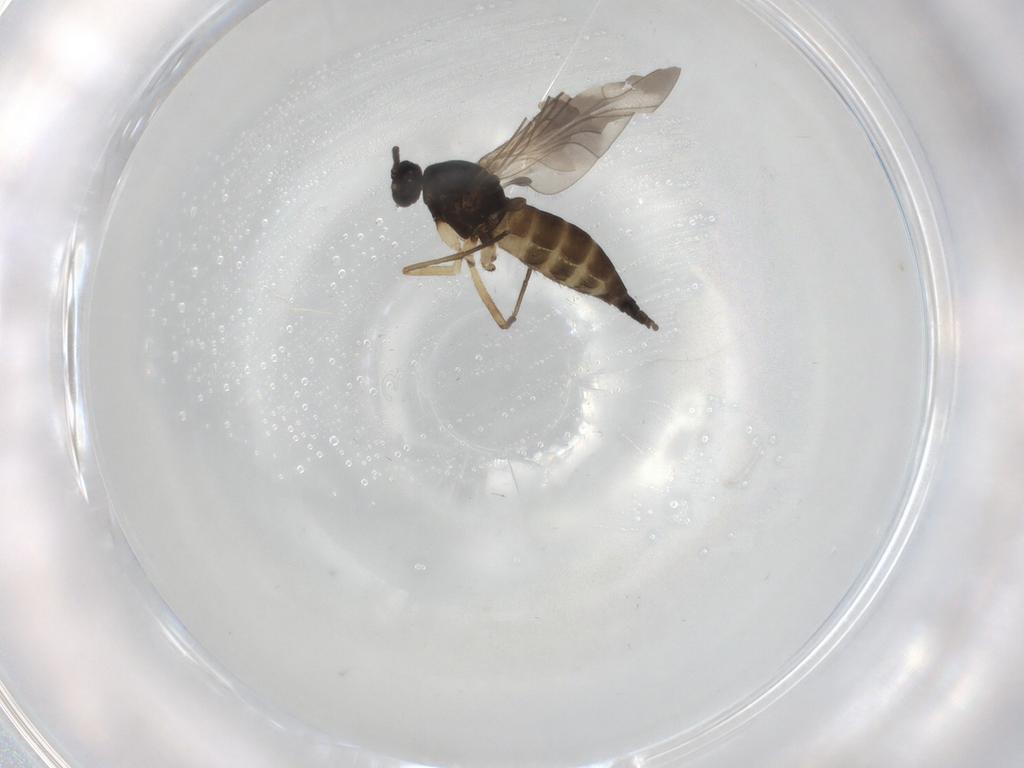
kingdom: Animalia
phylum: Arthropoda
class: Insecta
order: Diptera
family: Sciaridae
